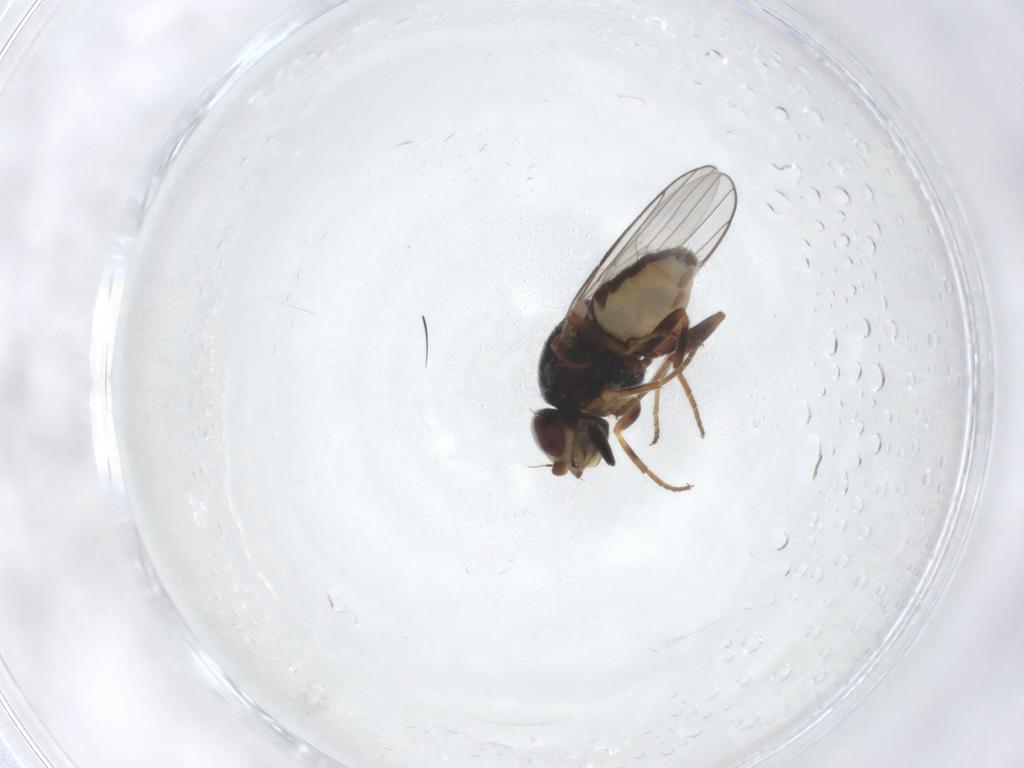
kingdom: Animalia
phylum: Arthropoda
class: Insecta
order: Diptera
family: Chloropidae
